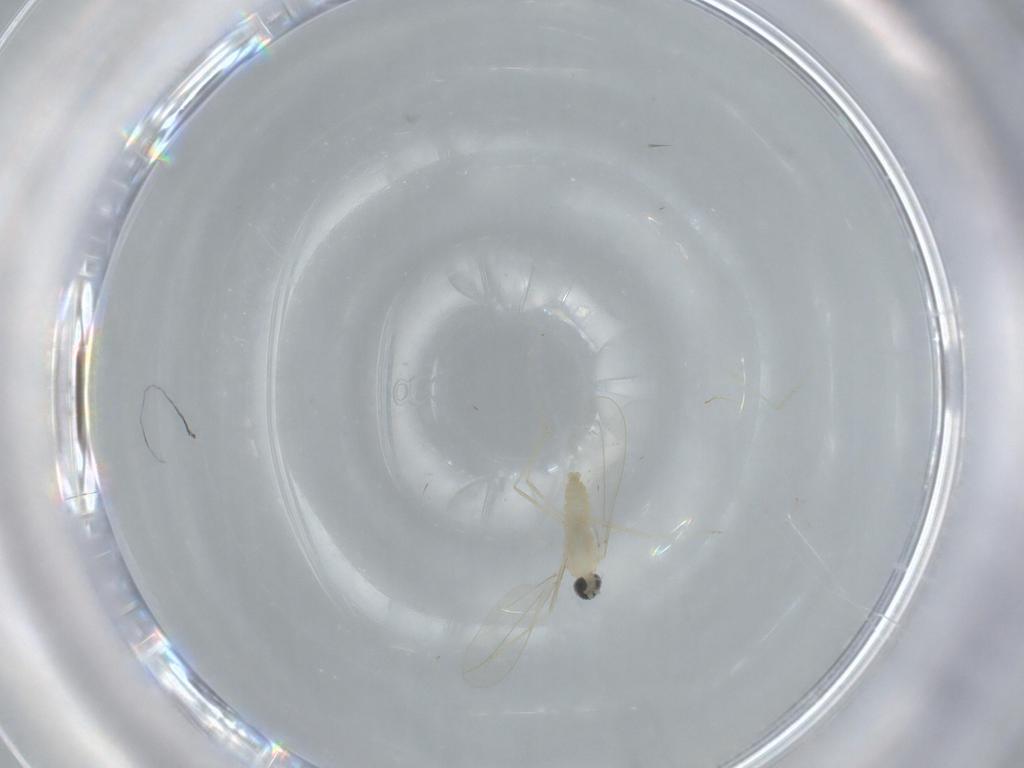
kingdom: Animalia
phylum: Arthropoda
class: Insecta
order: Diptera
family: Cecidomyiidae
